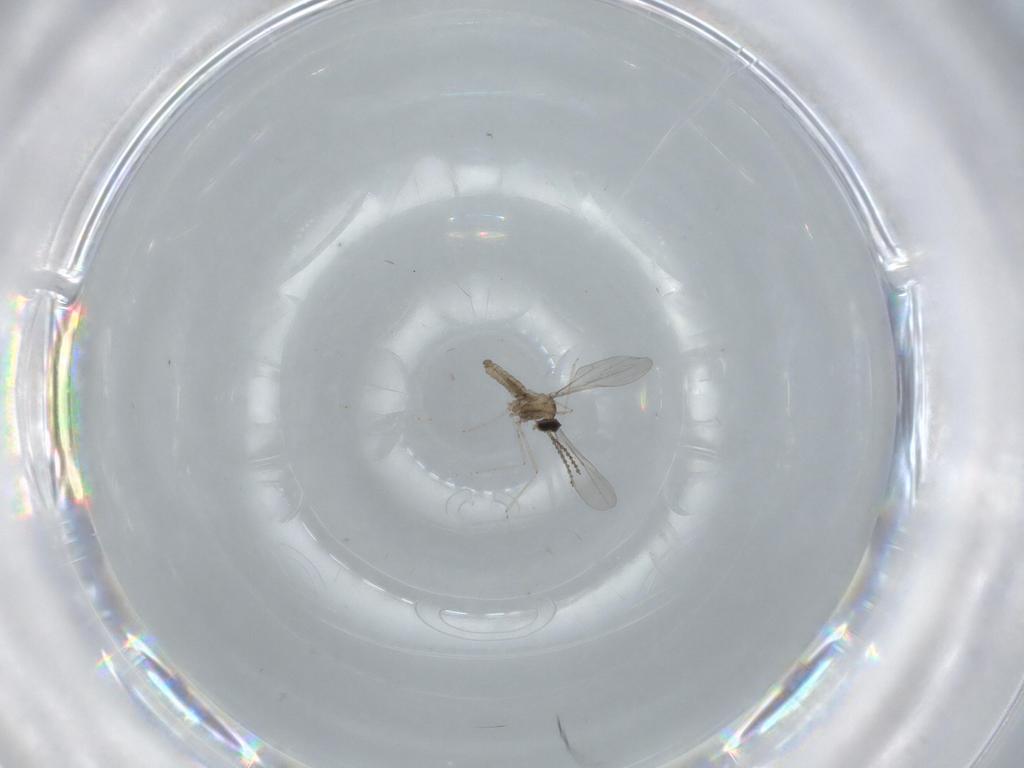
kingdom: Animalia
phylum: Arthropoda
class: Insecta
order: Diptera
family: Cecidomyiidae
